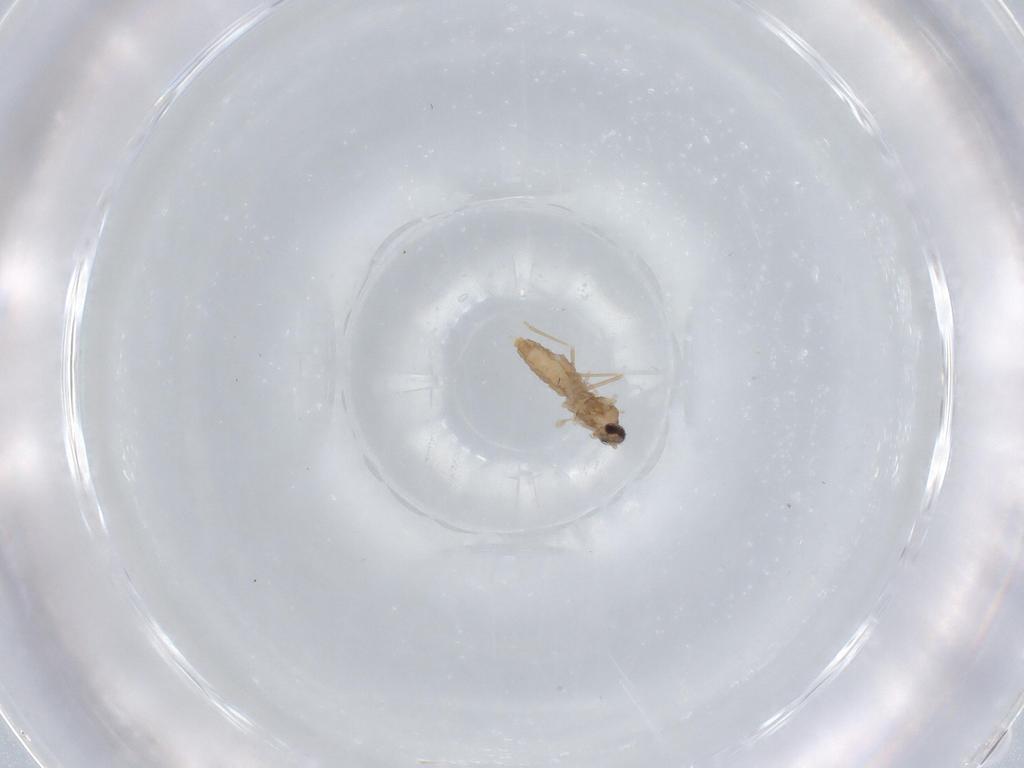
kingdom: Animalia
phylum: Arthropoda
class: Insecta
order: Diptera
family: Cecidomyiidae
